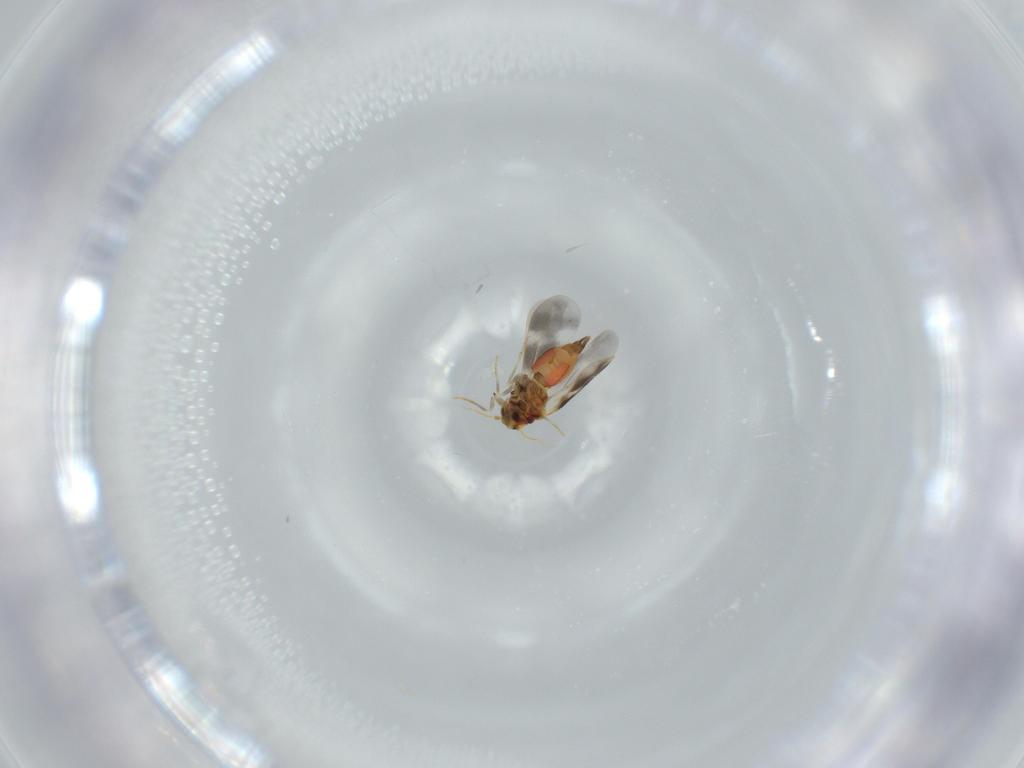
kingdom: Animalia
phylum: Arthropoda
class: Insecta
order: Hemiptera
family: Aleyrodidae
